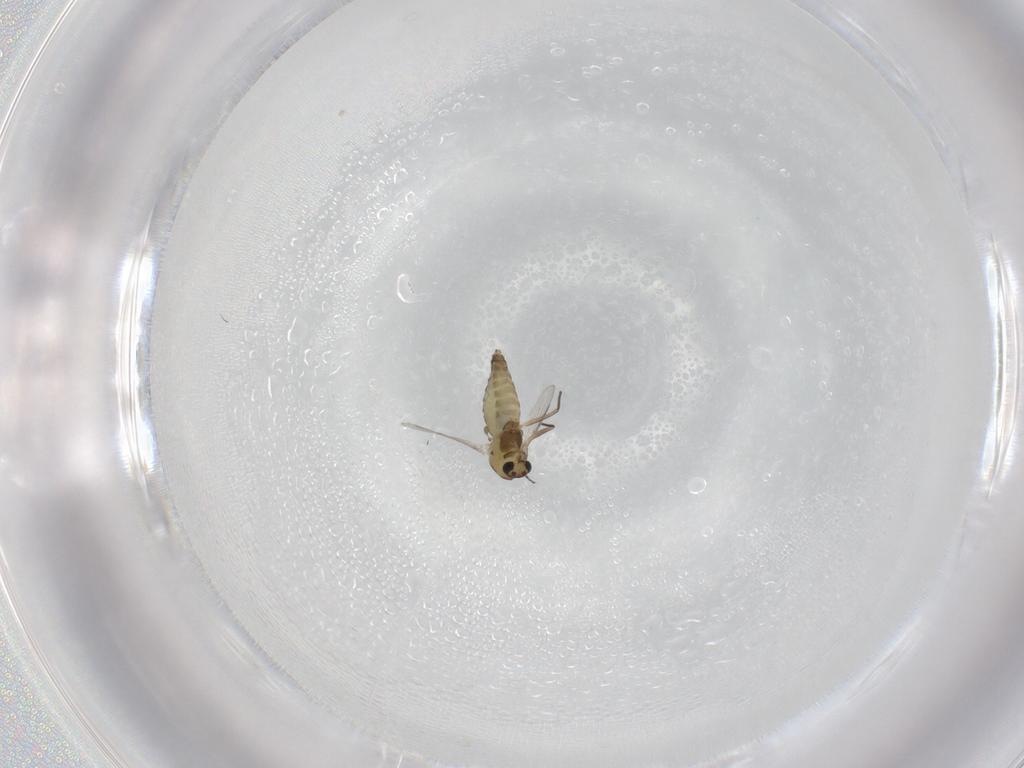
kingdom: Animalia
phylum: Arthropoda
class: Insecta
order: Diptera
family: Chironomidae
